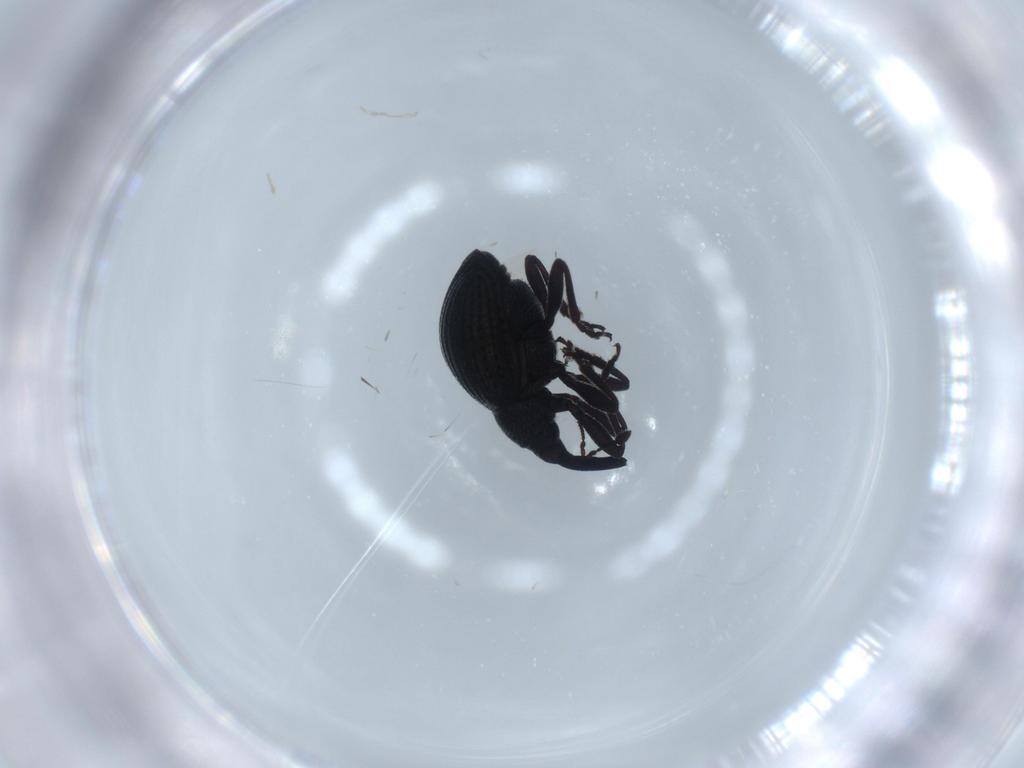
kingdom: Animalia
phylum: Arthropoda
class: Insecta
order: Coleoptera
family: Brentidae
